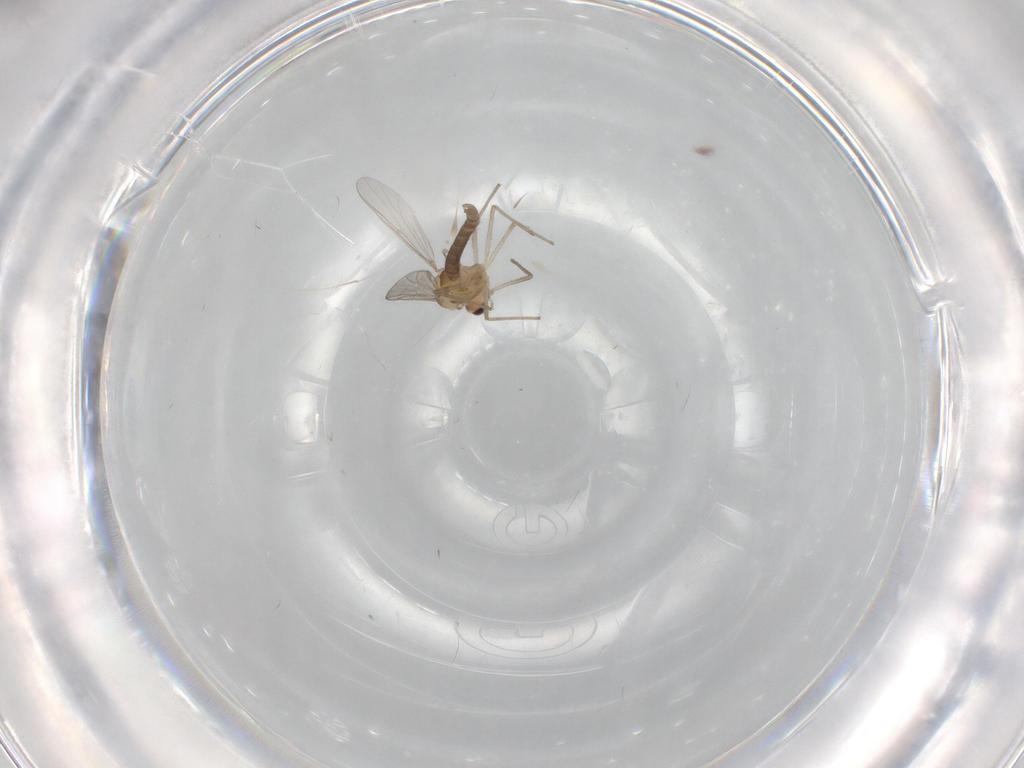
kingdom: Animalia
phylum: Arthropoda
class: Insecta
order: Diptera
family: Chironomidae
